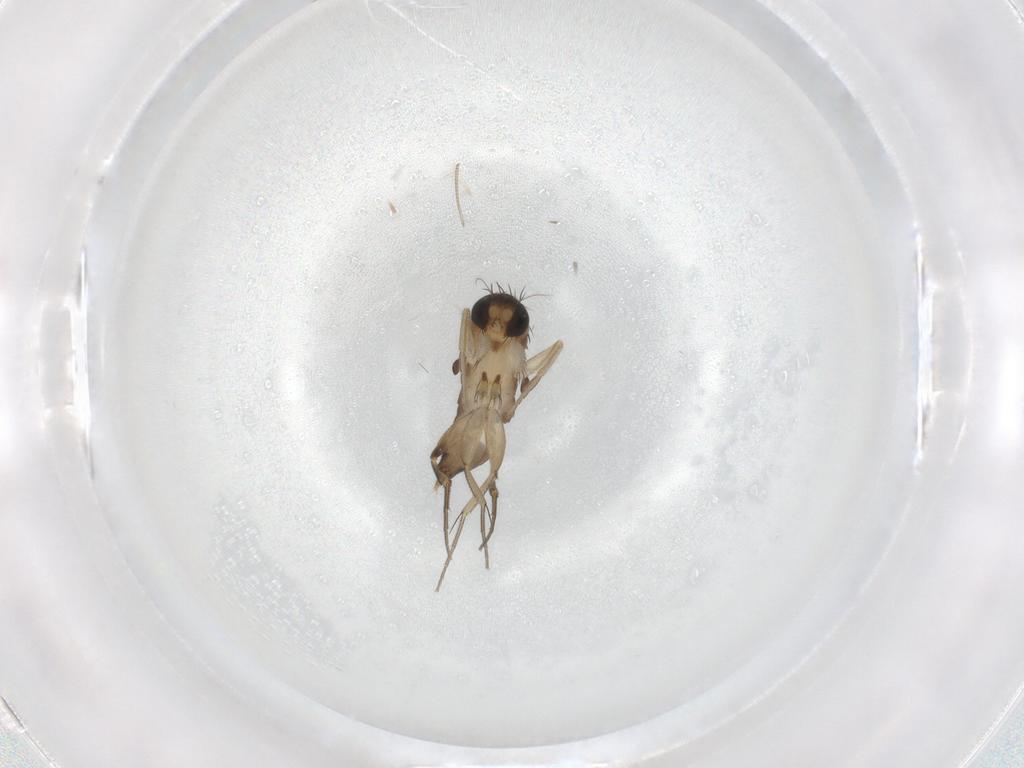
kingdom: Animalia
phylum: Arthropoda
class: Insecta
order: Diptera
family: Phoridae
